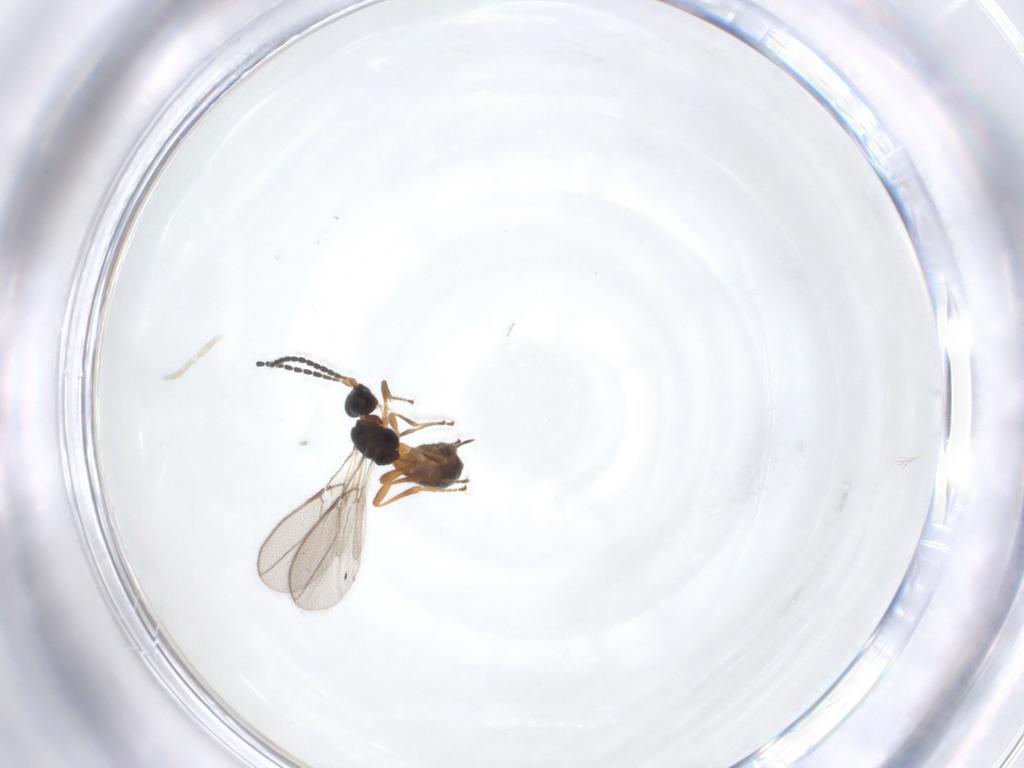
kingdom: Animalia
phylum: Arthropoda
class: Insecta
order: Hymenoptera
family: Braconidae
